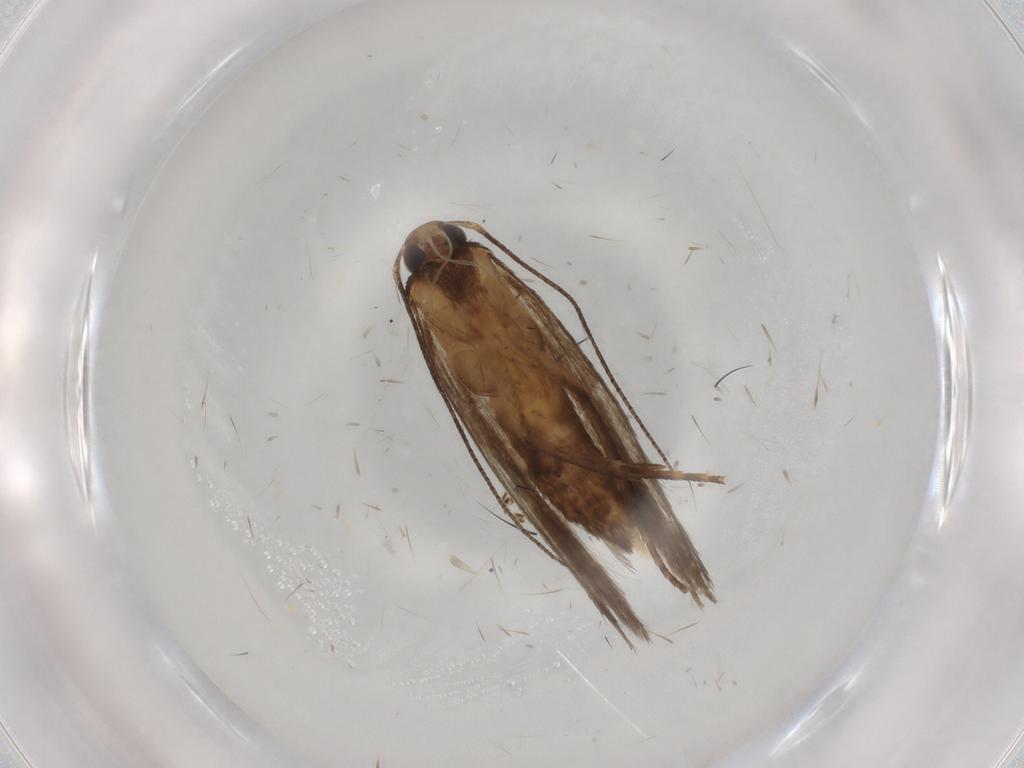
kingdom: Animalia
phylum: Arthropoda
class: Insecta
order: Lepidoptera
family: Gelechiidae
